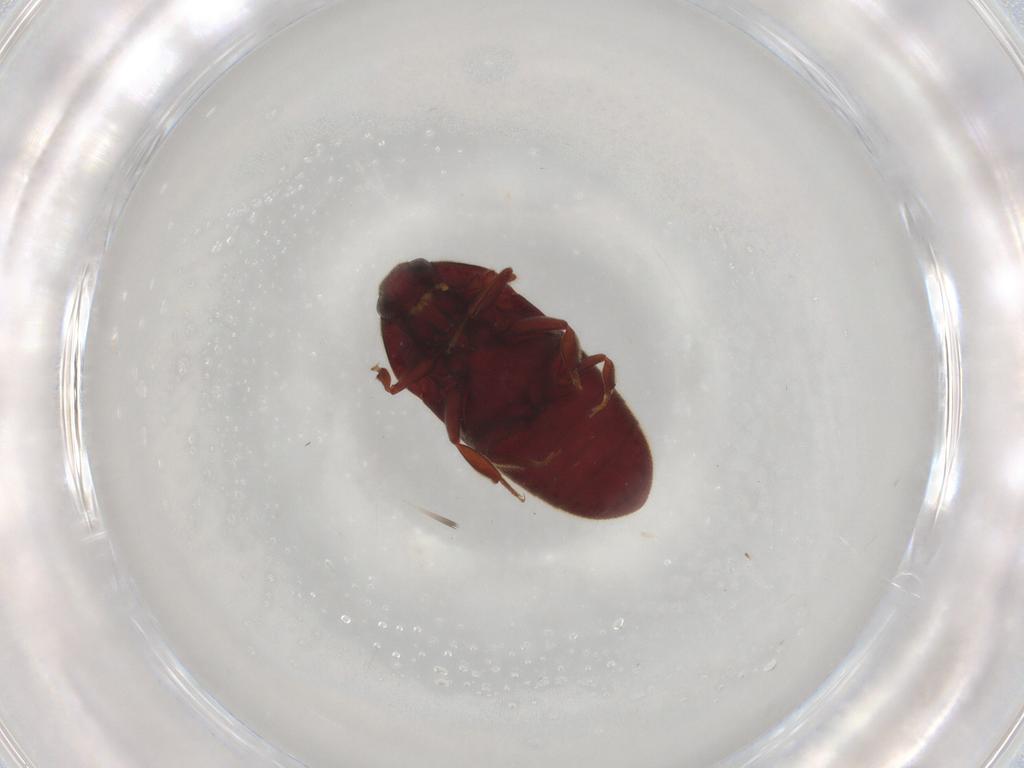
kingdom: Animalia
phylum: Arthropoda
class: Insecta
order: Coleoptera
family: Throscidae
